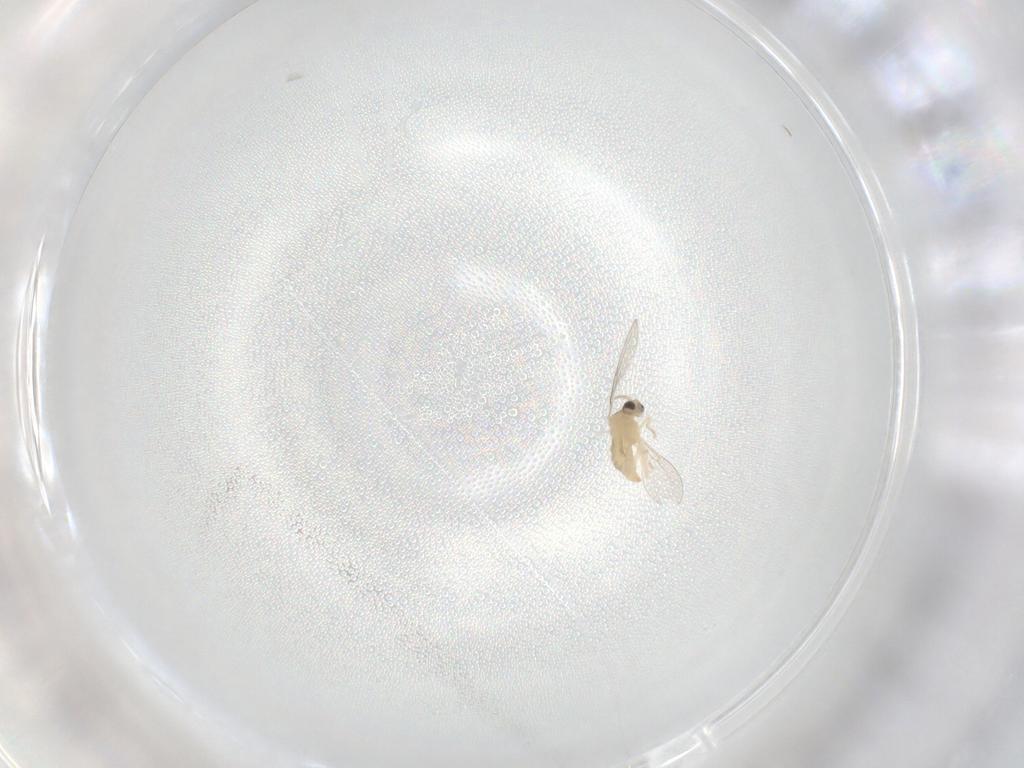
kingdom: Animalia
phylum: Arthropoda
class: Insecta
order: Diptera
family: Cecidomyiidae
